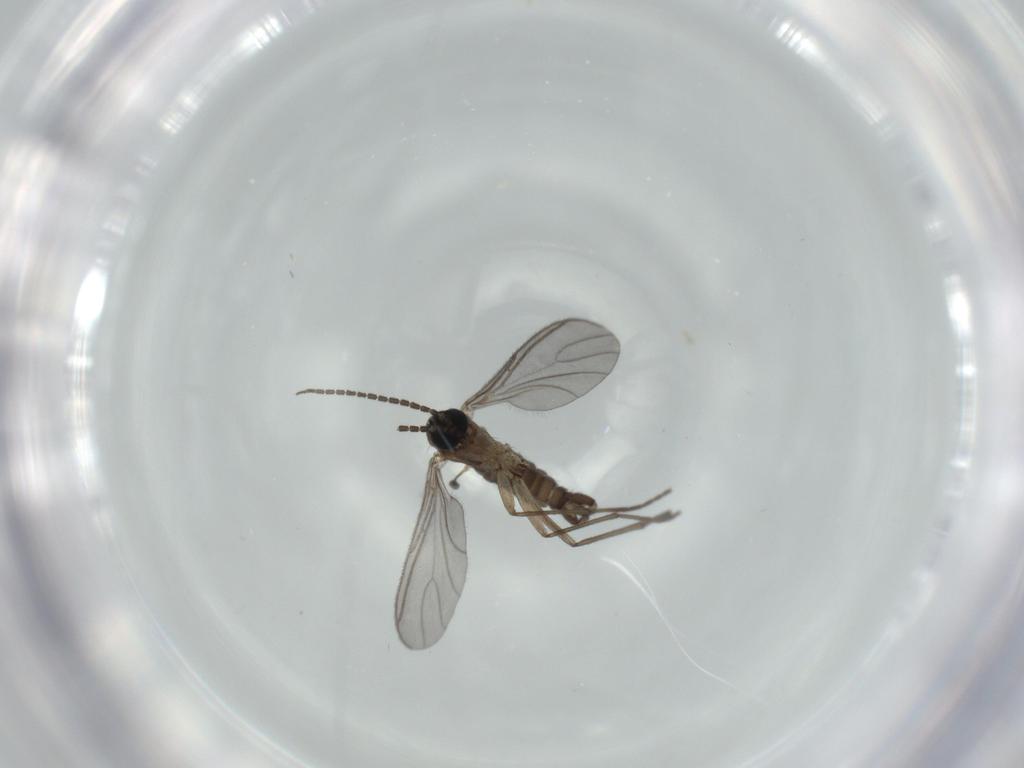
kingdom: Animalia
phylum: Arthropoda
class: Insecta
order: Diptera
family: Sciaridae
